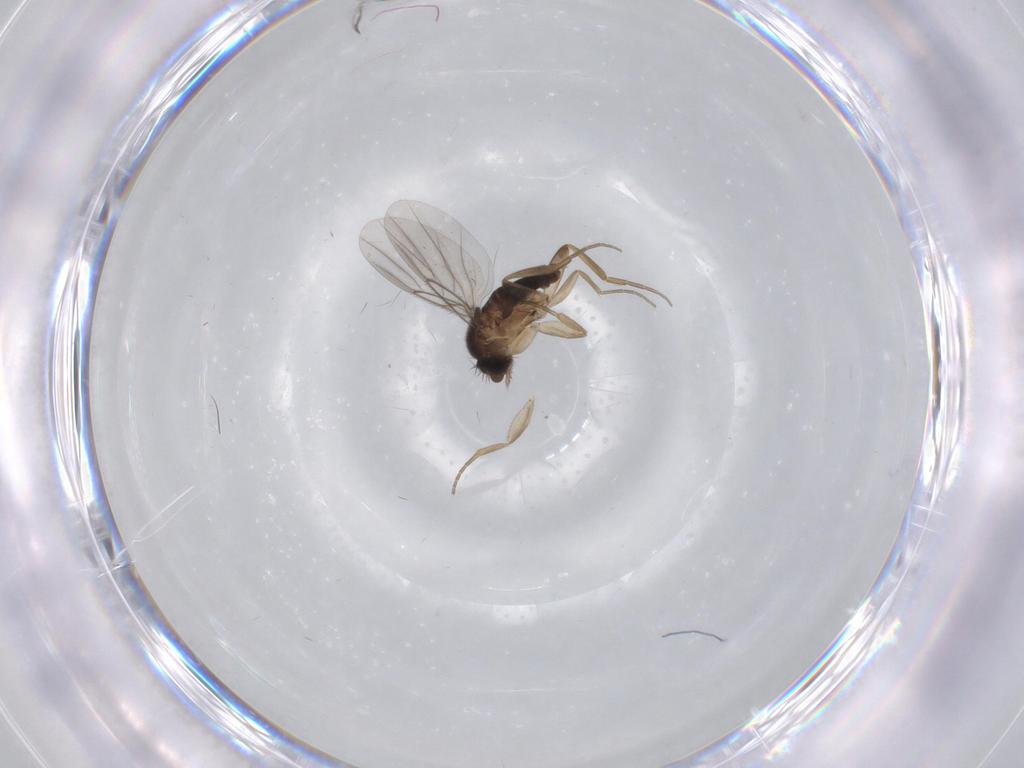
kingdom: Animalia
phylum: Arthropoda
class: Insecta
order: Diptera
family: Phoridae
